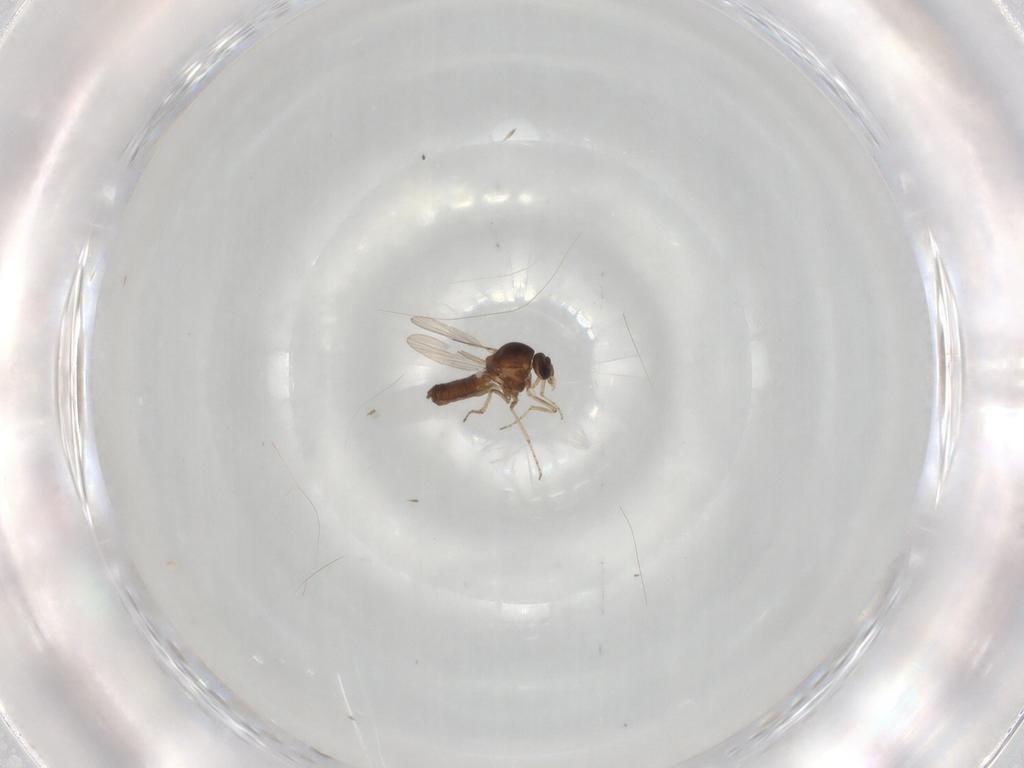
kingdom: Animalia
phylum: Arthropoda
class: Insecta
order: Diptera
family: Ceratopogonidae
